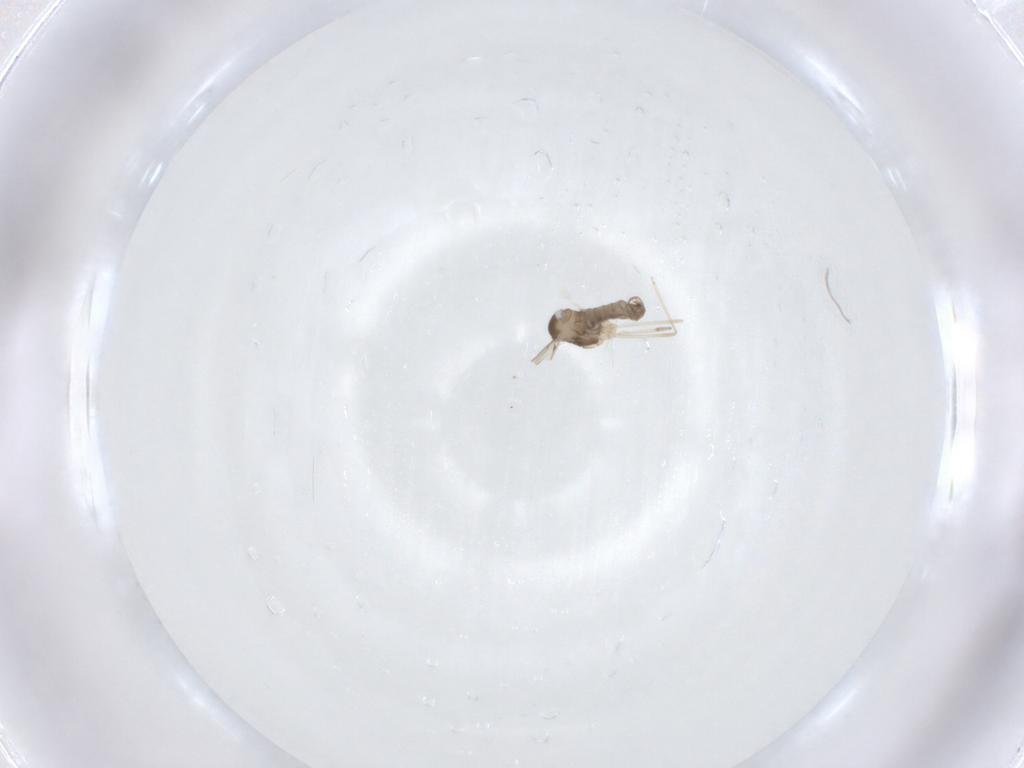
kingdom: Animalia
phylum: Arthropoda
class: Insecta
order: Diptera
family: Cecidomyiidae
